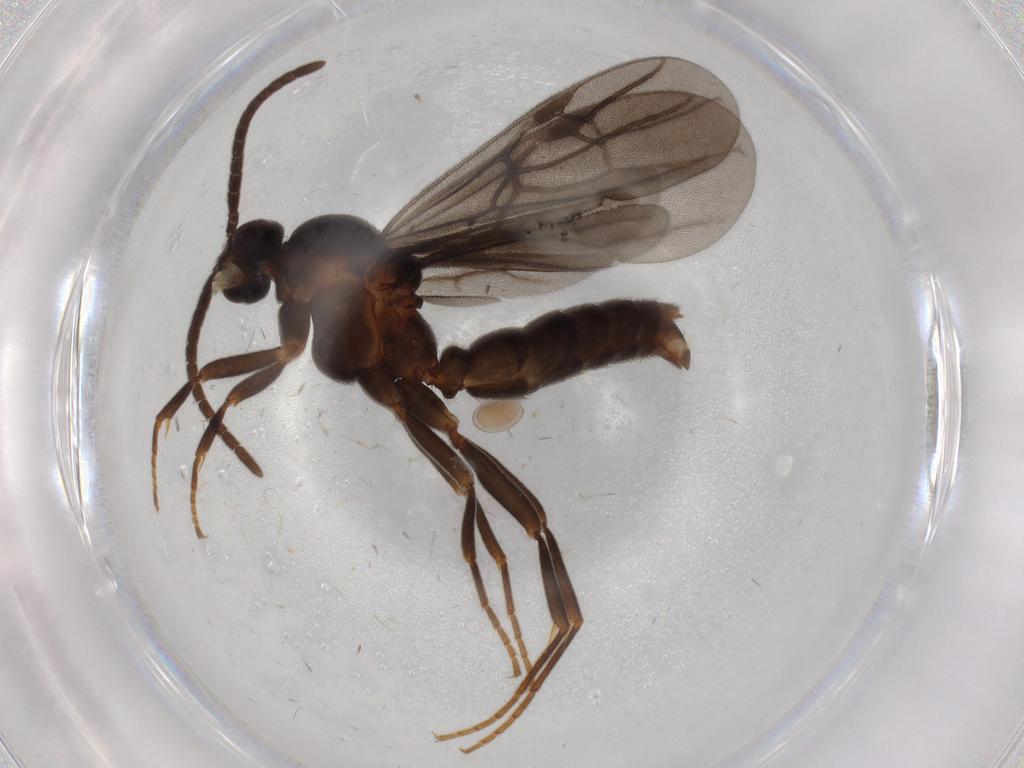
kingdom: Animalia
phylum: Arthropoda
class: Insecta
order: Hymenoptera
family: Formicidae
